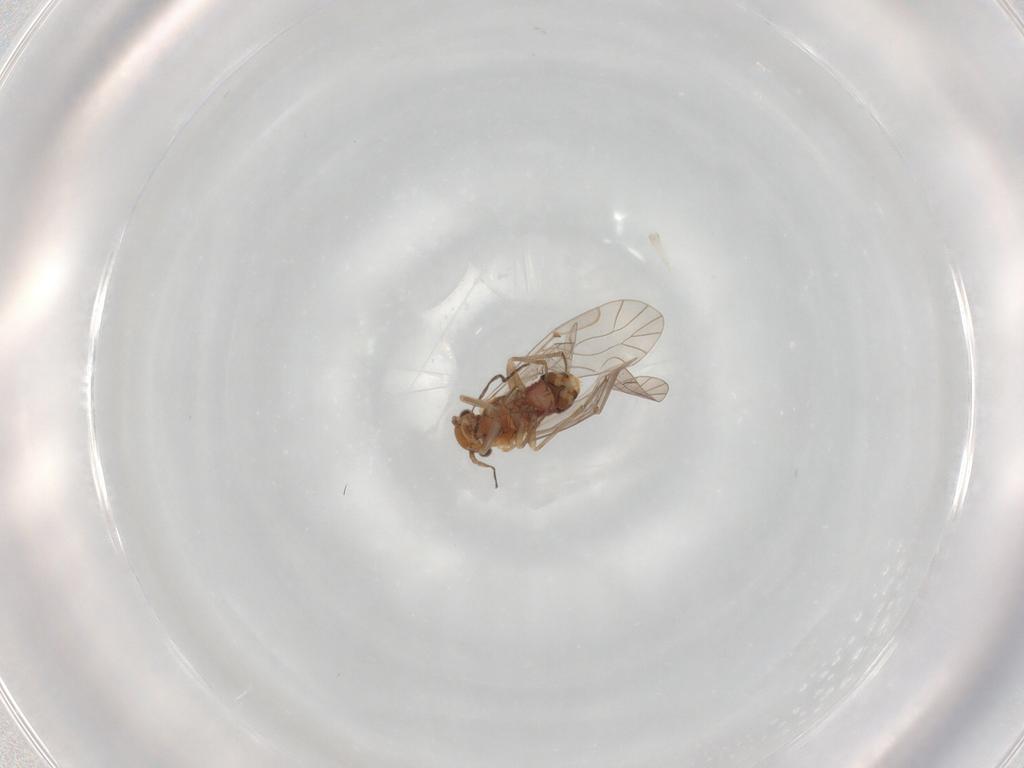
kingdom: Animalia
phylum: Arthropoda
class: Insecta
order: Psocodea
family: Lachesillidae
